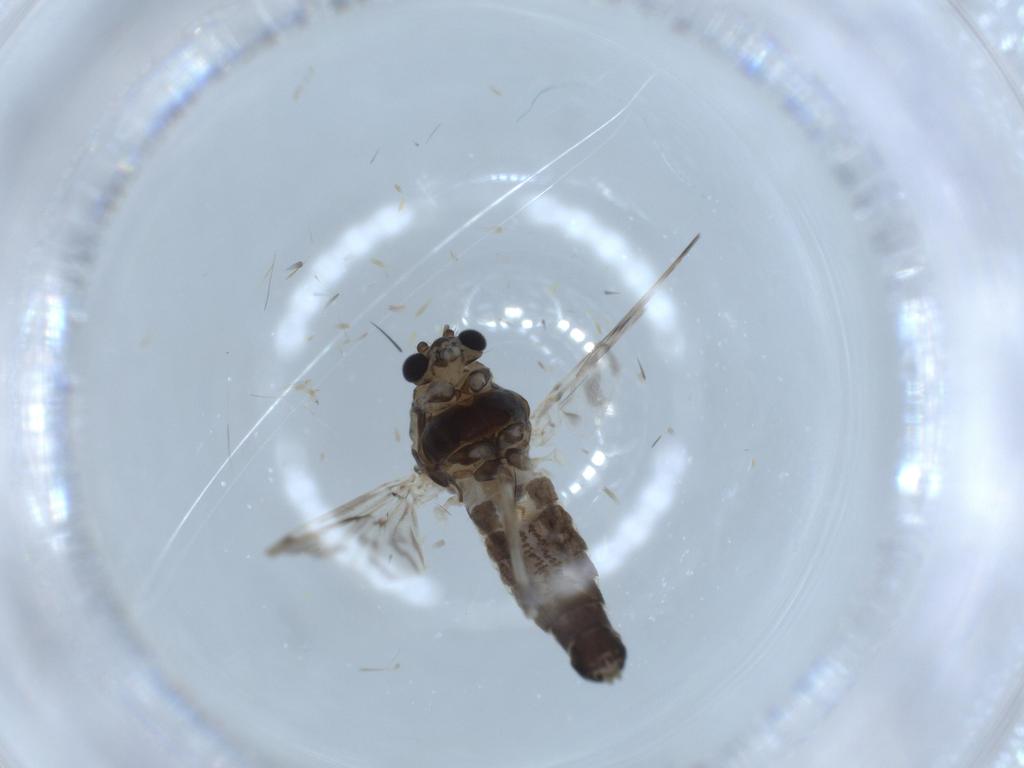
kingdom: Animalia
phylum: Arthropoda
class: Insecta
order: Diptera
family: Chironomidae
